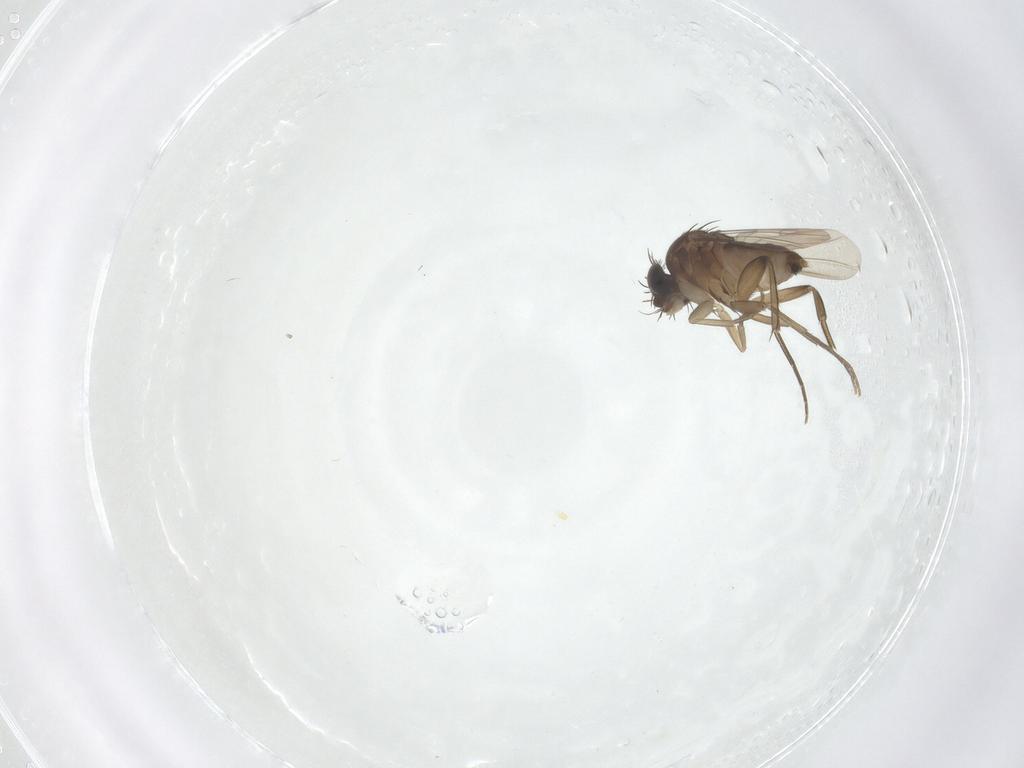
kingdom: Animalia
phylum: Arthropoda
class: Insecta
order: Diptera
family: Phoridae
